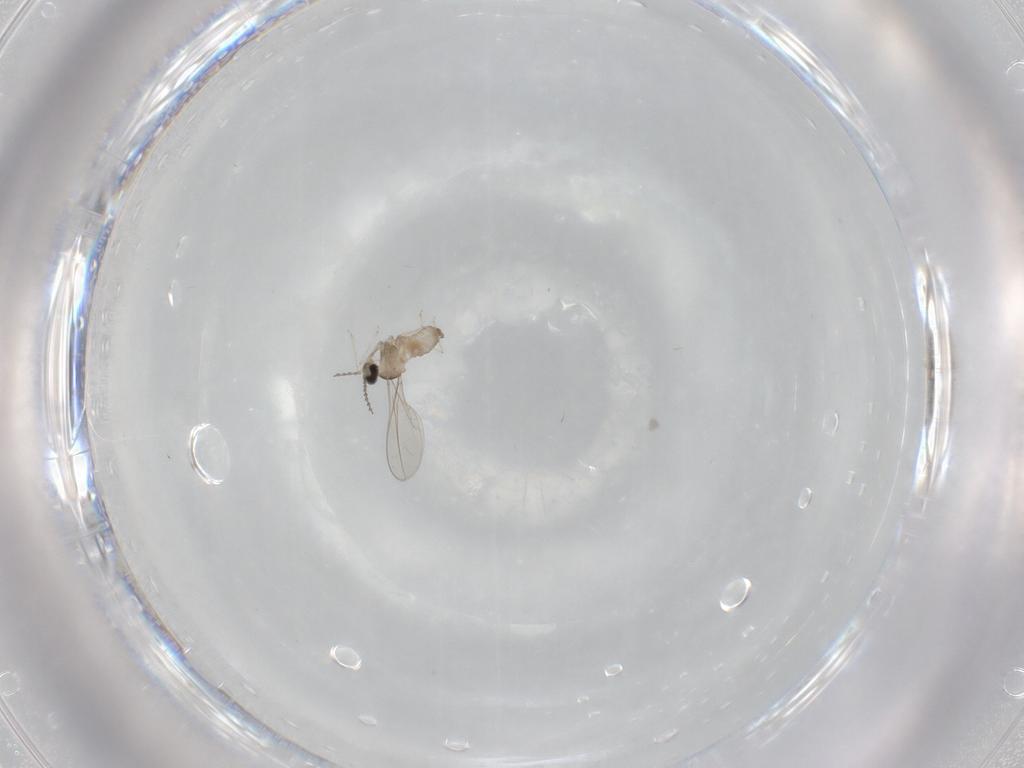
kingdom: Animalia
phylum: Arthropoda
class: Insecta
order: Diptera
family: Cecidomyiidae
